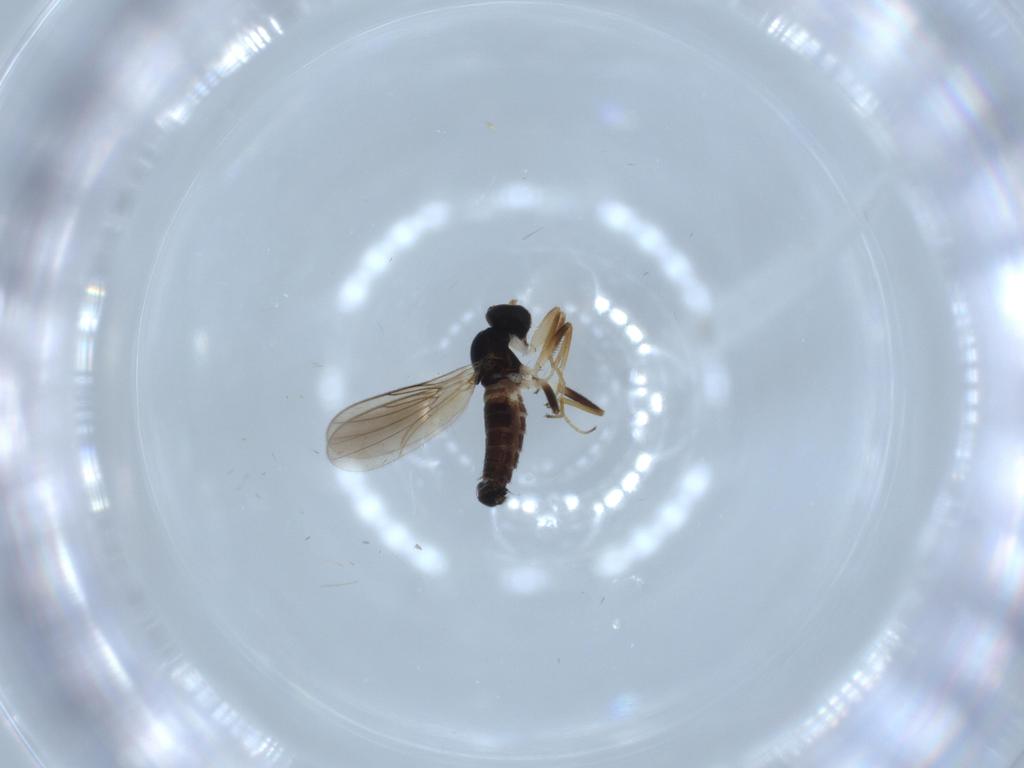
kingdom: Animalia
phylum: Arthropoda
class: Insecta
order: Diptera
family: Hybotidae
